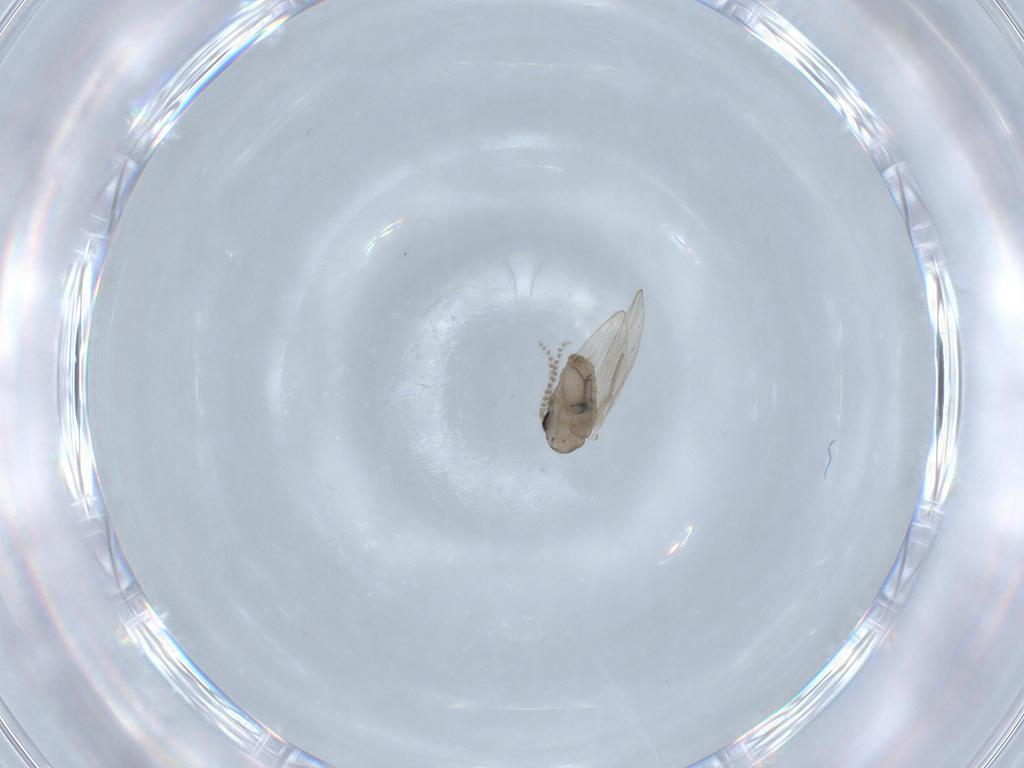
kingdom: Animalia
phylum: Arthropoda
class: Insecta
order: Diptera
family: Psychodidae
